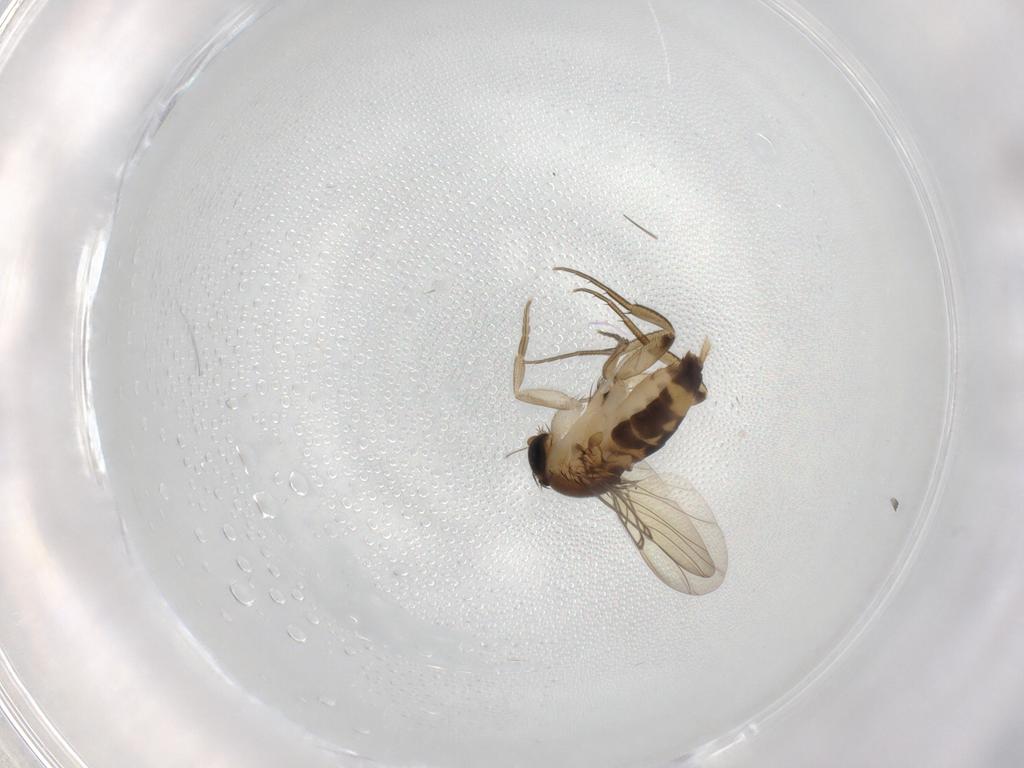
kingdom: Animalia
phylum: Arthropoda
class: Insecta
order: Diptera
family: Phoridae
